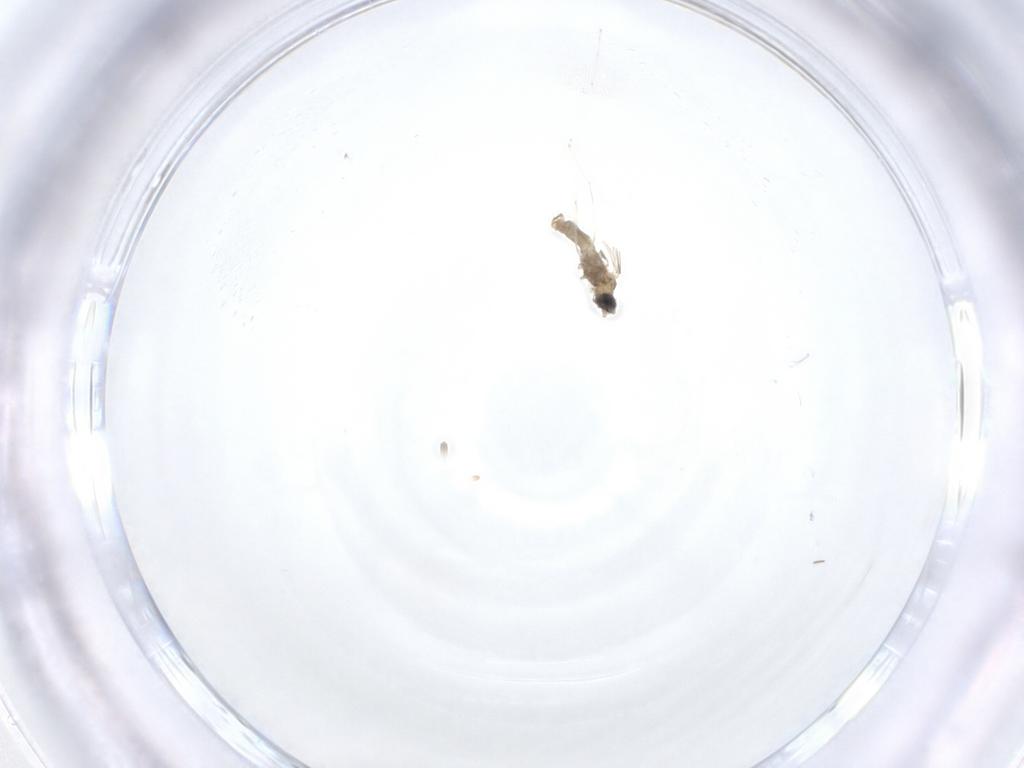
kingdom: Animalia
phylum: Arthropoda
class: Insecta
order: Diptera
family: Cecidomyiidae
